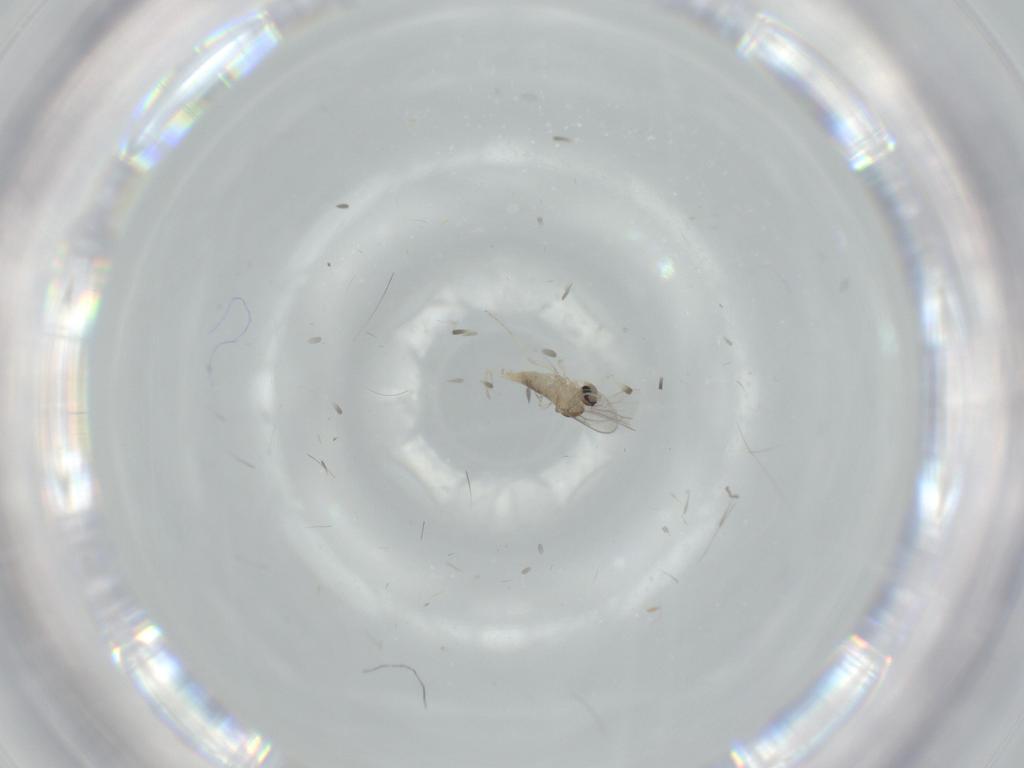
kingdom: Animalia
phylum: Arthropoda
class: Insecta
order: Diptera
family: Cecidomyiidae
